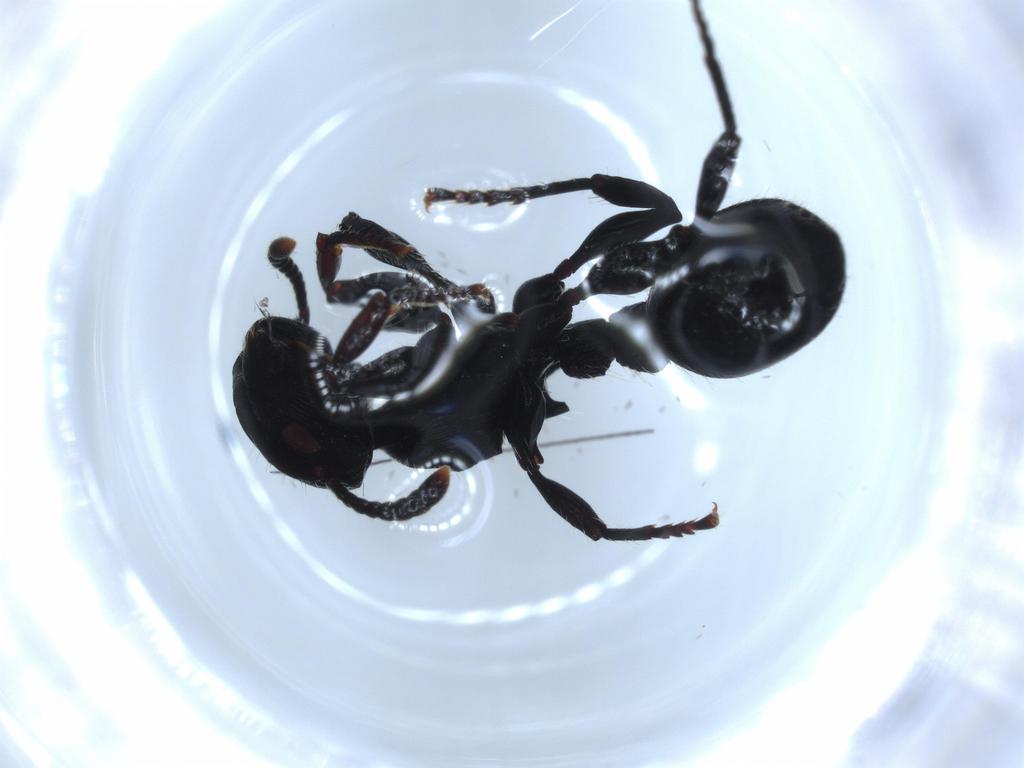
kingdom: Animalia
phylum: Arthropoda
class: Insecta
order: Hymenoptera
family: Formicidae
